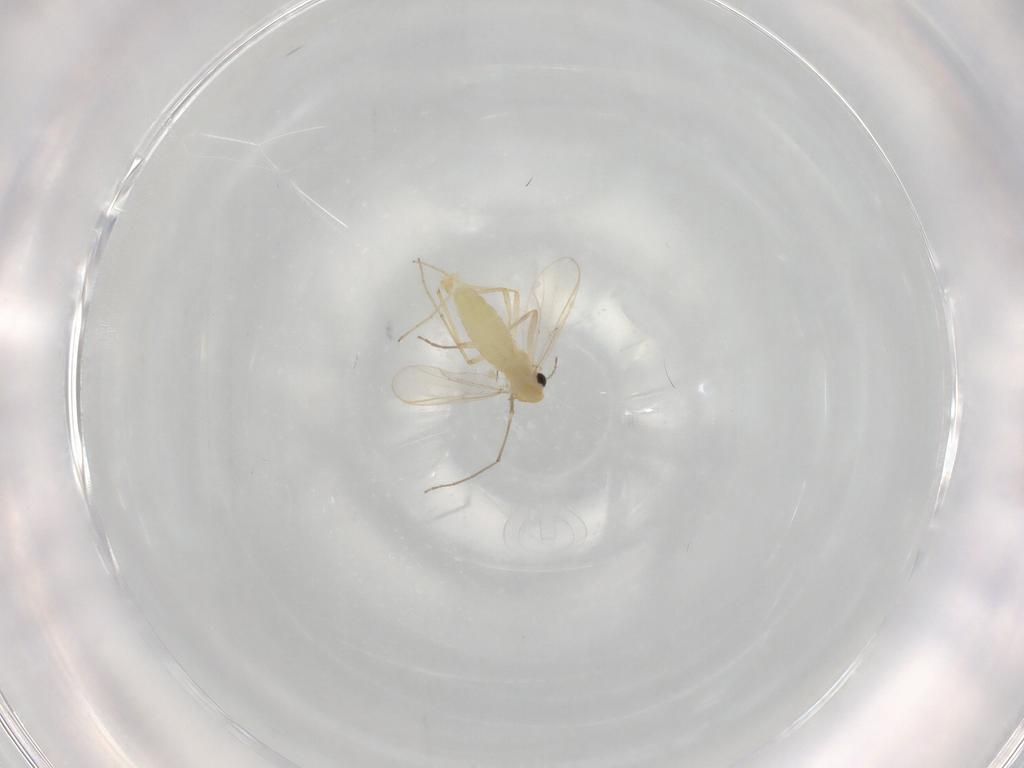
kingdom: Animalia
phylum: Arthropoda
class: Insecta
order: Diptera
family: Chironomidae
